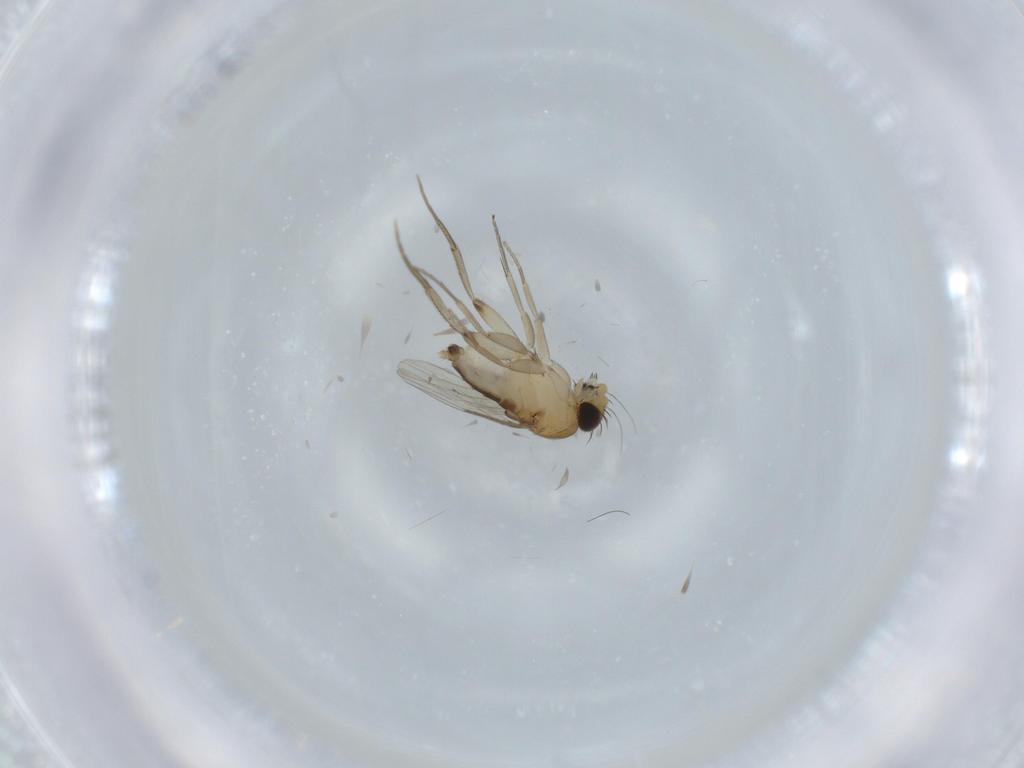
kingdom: Animalia
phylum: Arthropoda
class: Insecta
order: Diptera
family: Phoridae
